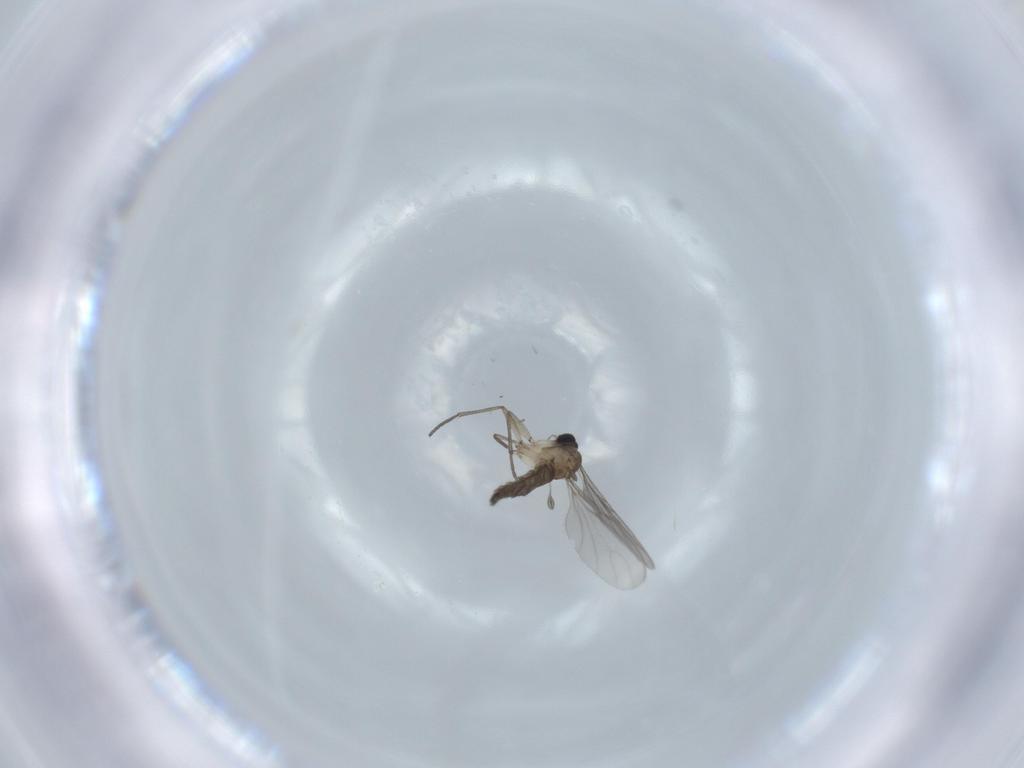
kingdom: Animalia
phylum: Arthropoda
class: Insecta
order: Diptera
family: Sciaridae
